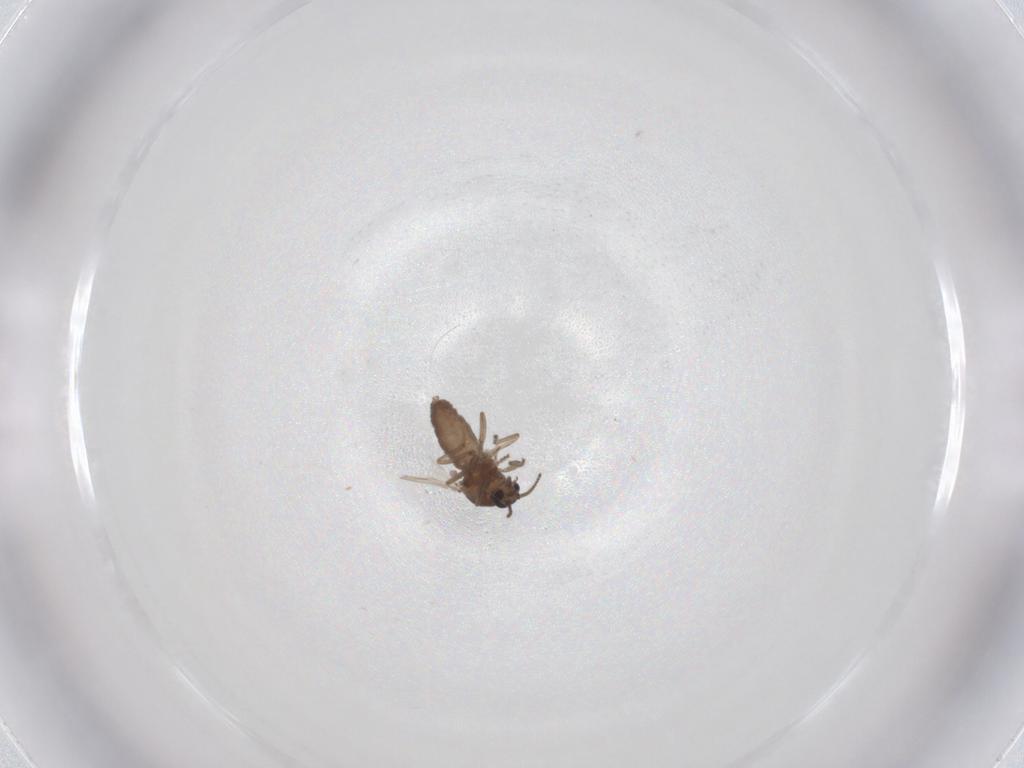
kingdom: Animalia
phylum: Arthropoda
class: Insecta
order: Diptera
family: Ceratopogonidae
